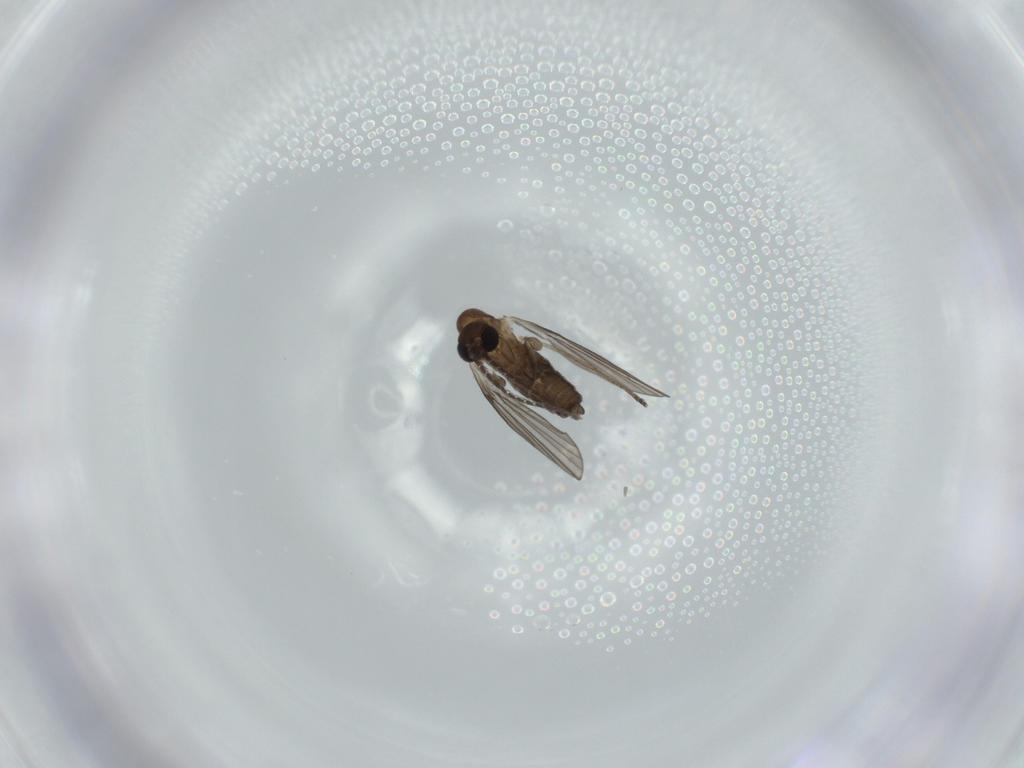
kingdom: Animalia
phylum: Arthropoda
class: Insecta
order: Diptera
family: Psychodidae
